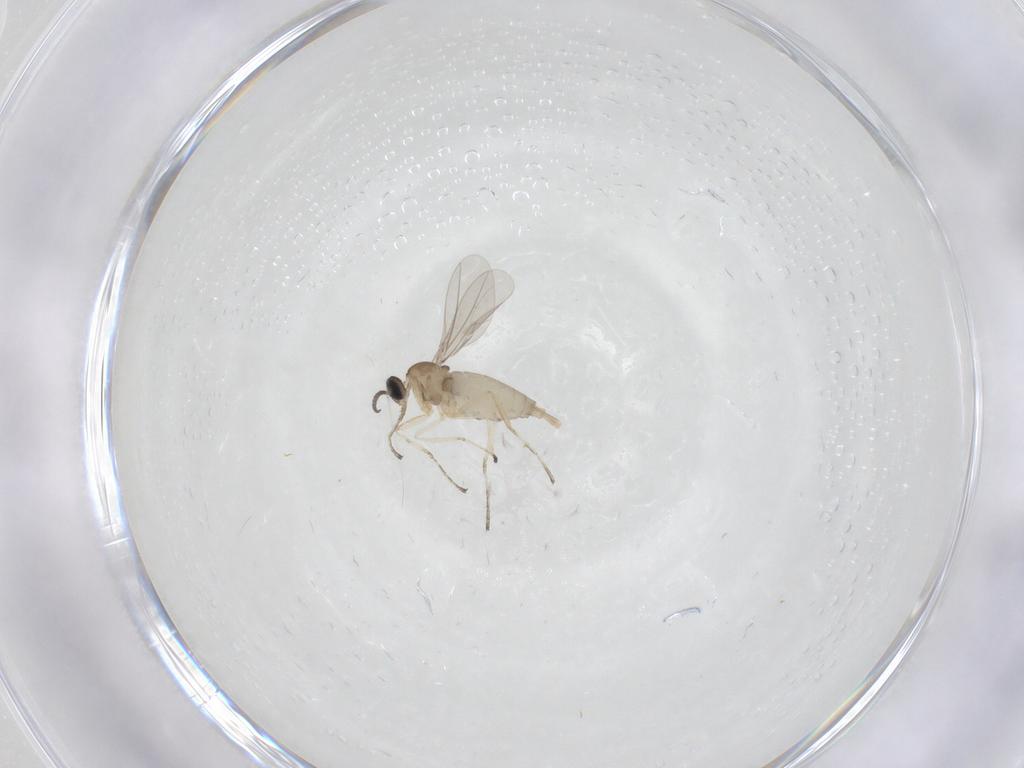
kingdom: Animalia
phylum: Arthropoda
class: Insecta
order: Diptera
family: Cecidomyiidae
